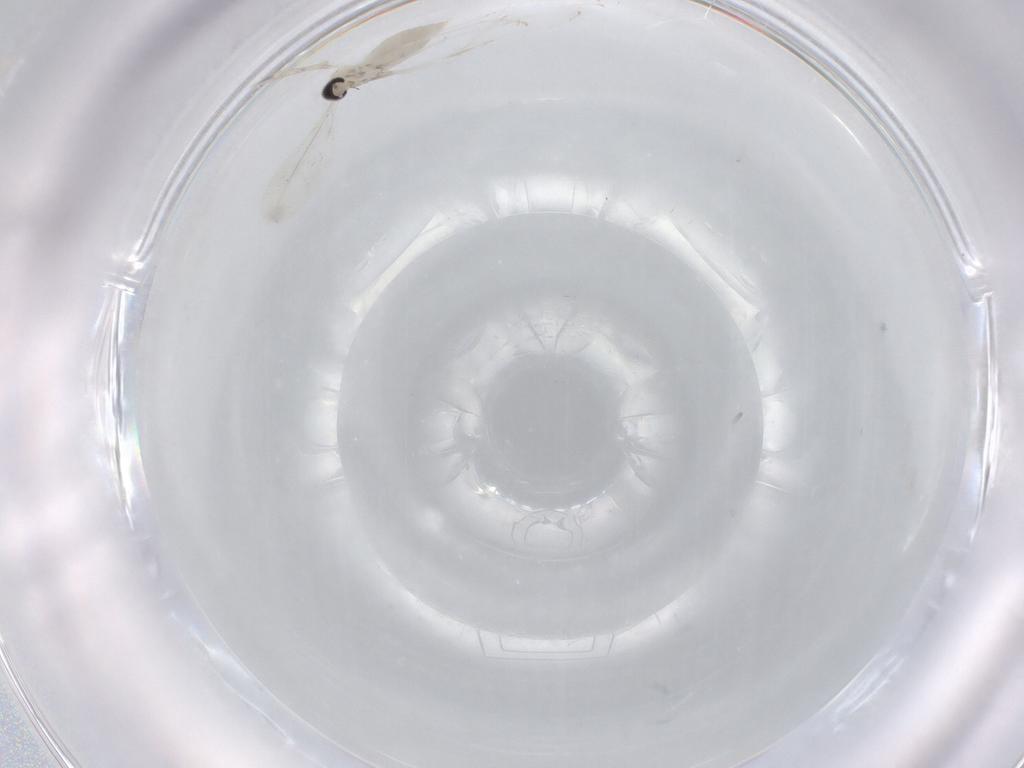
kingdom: Animalia
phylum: Arthropoda
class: Insecta
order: Diptera
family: Cecidomyiidae
